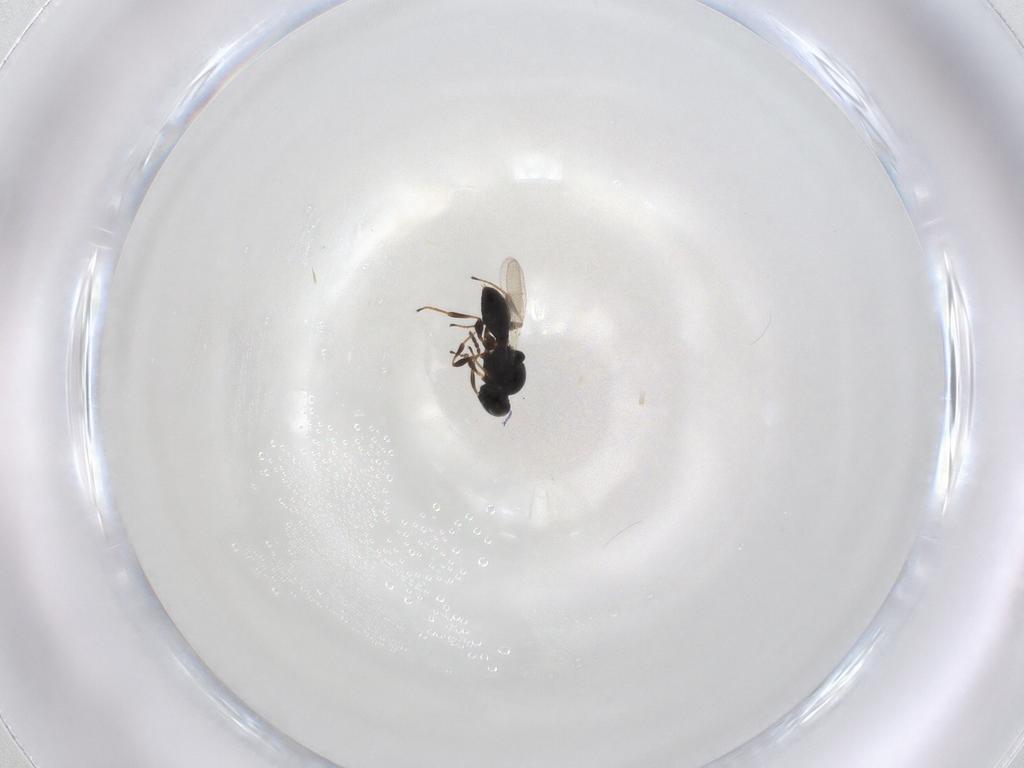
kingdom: Animalia
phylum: Arthropoda
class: Insecta
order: Hymenoptera
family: Platygastridae
